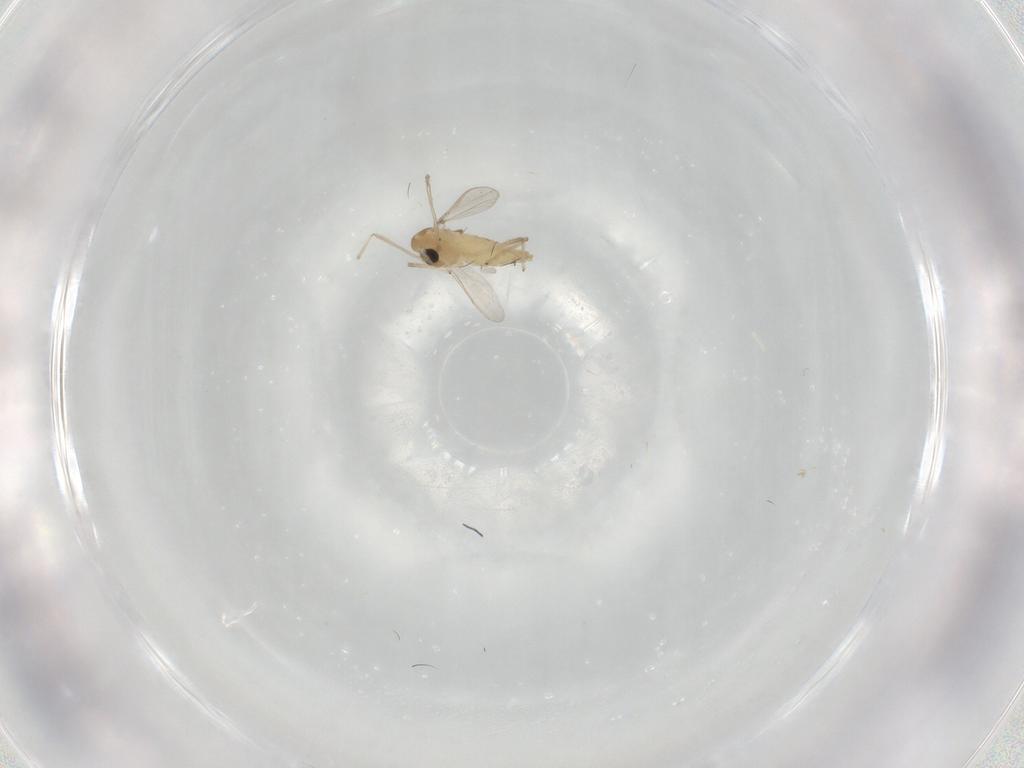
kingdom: Animalia
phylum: Arthropoda
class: Insecta
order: Diptera
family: Chironomidae
